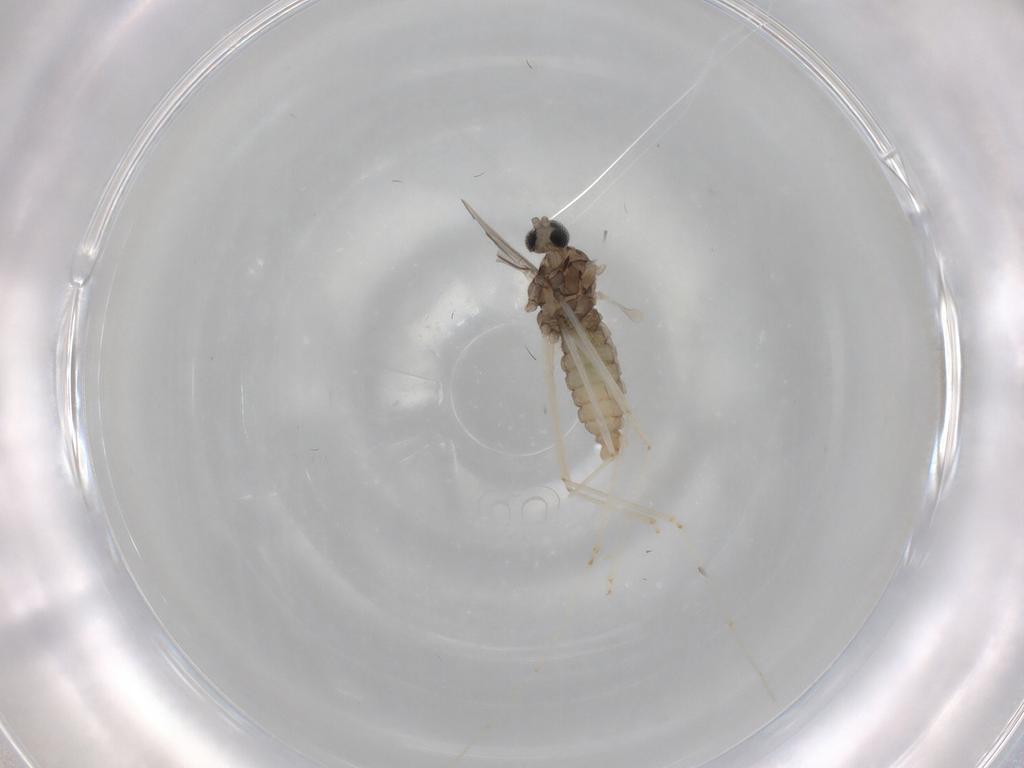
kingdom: Animalia
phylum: Arthropoda
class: Insecta
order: Diptera
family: Cecidomyiidae
